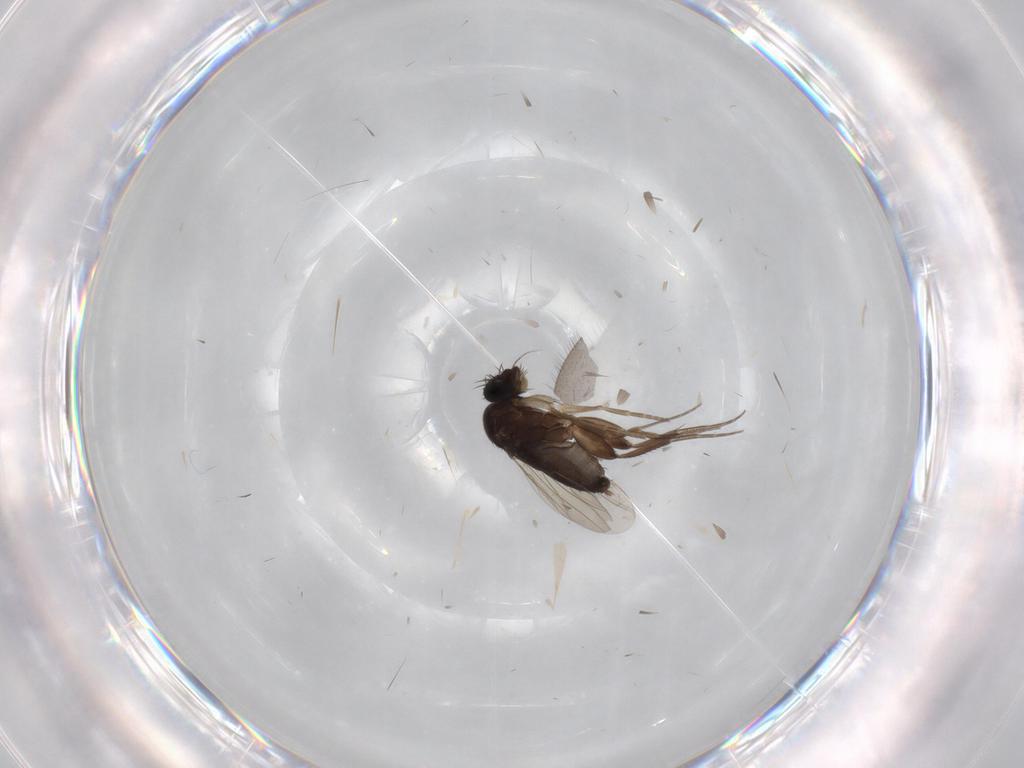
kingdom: Animalia
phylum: Arthropoda
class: Insecta
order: Diptera
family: Phoridae
